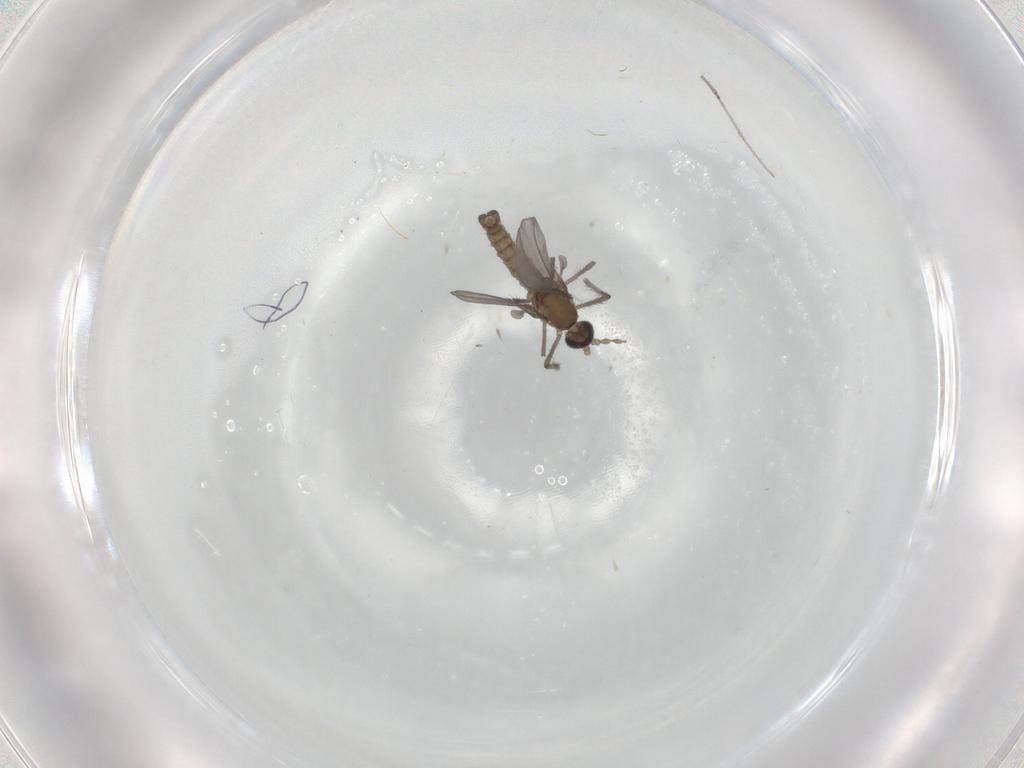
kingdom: Animalia
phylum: Arthropoda
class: Insecta
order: Diptera
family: Cecidomyiidae
